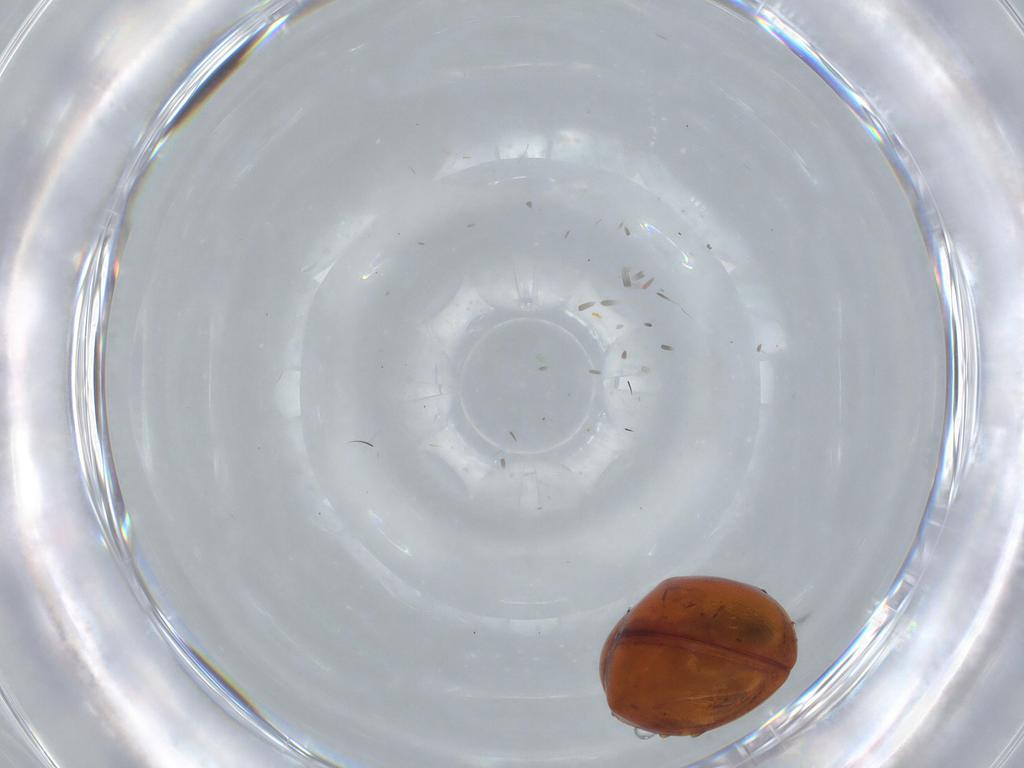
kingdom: Animalia
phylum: Arthropoda
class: Insecta
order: Coleoptera
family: Coccinellidae
